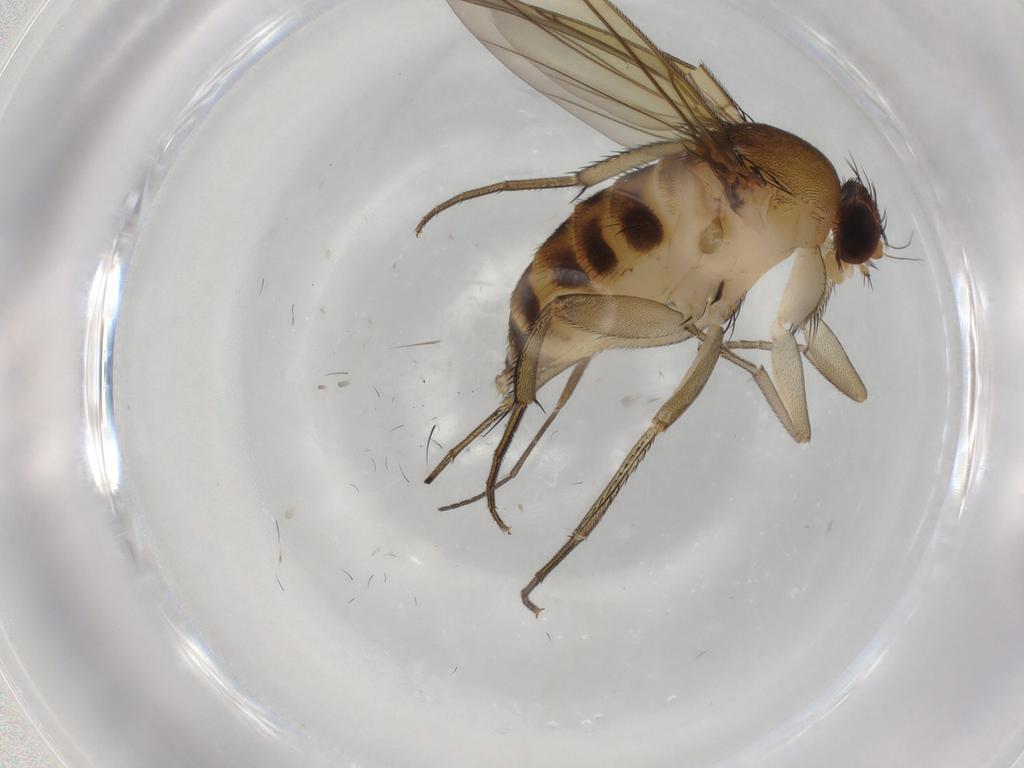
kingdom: Animalia
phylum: Arthropoda
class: Insecta
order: Diptera
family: Phoridae
